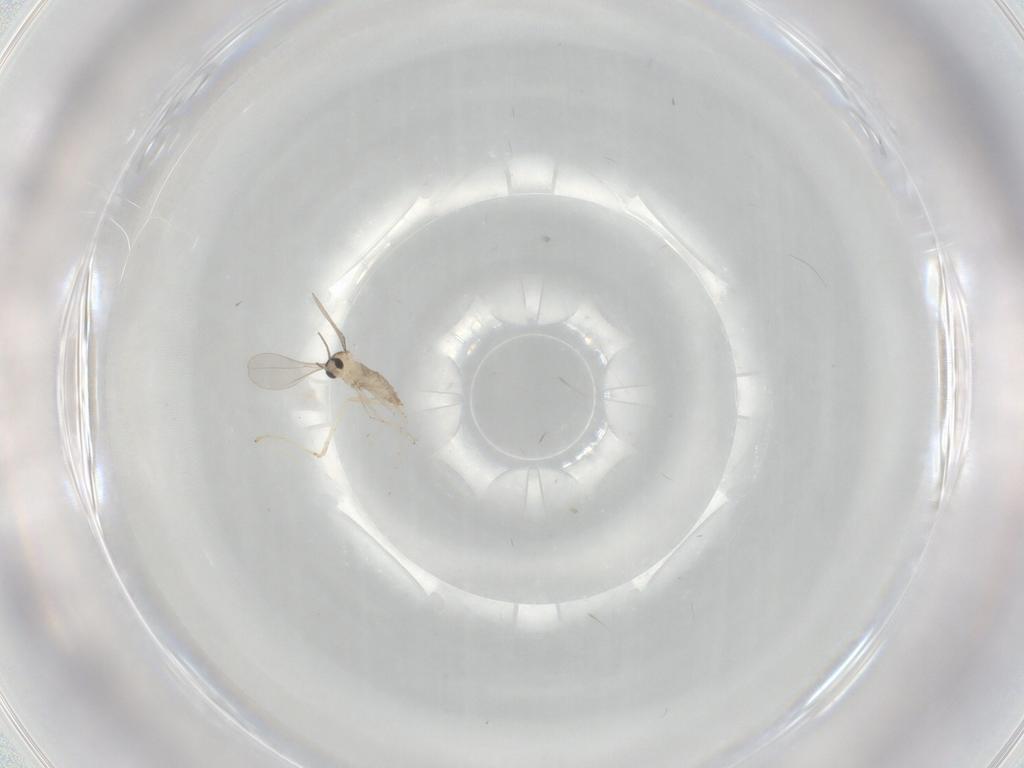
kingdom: Animalia
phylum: Arthropoda
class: Insecta
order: Diptera
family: Cecidomyiidae
